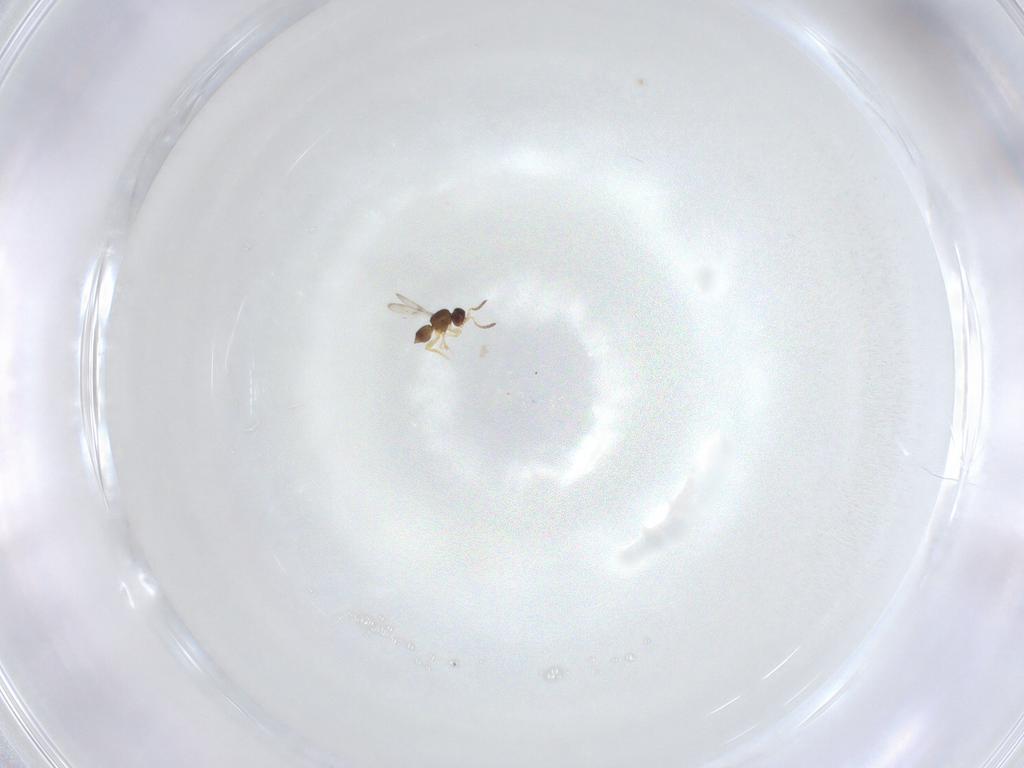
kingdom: Animalia
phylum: Arthropoda
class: Insecta
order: Hymenoptera
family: Ceraphronidae
